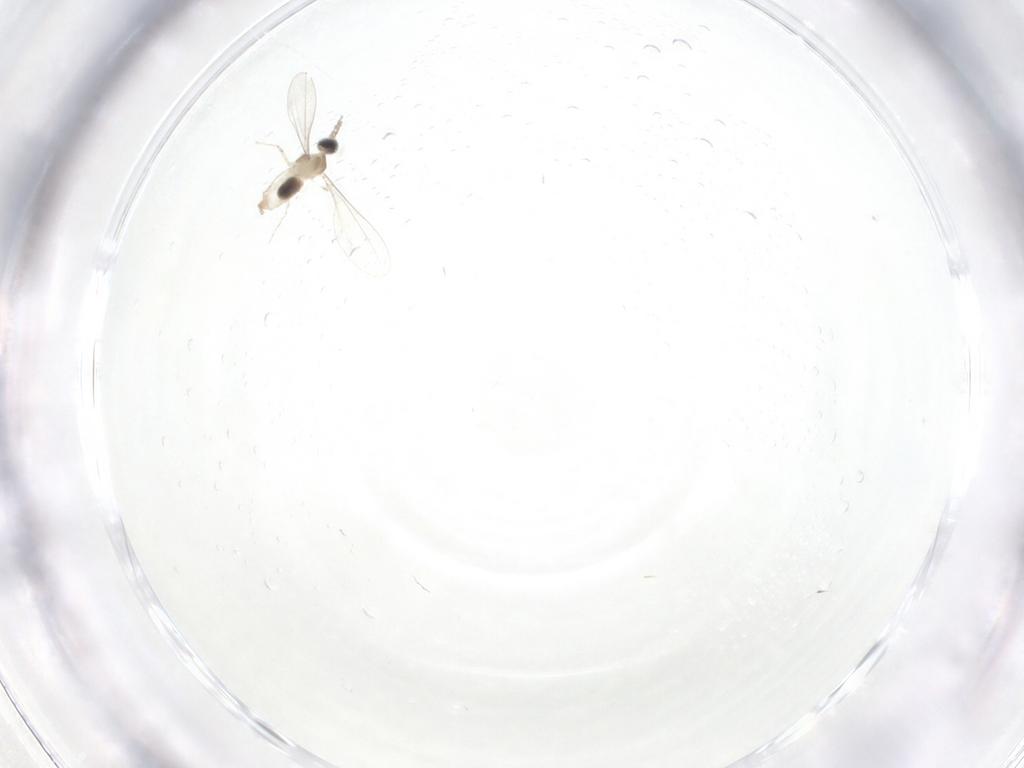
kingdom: Animalia
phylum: Arthropoda
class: Insecta
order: Diptera
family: Cecidomyiidae
